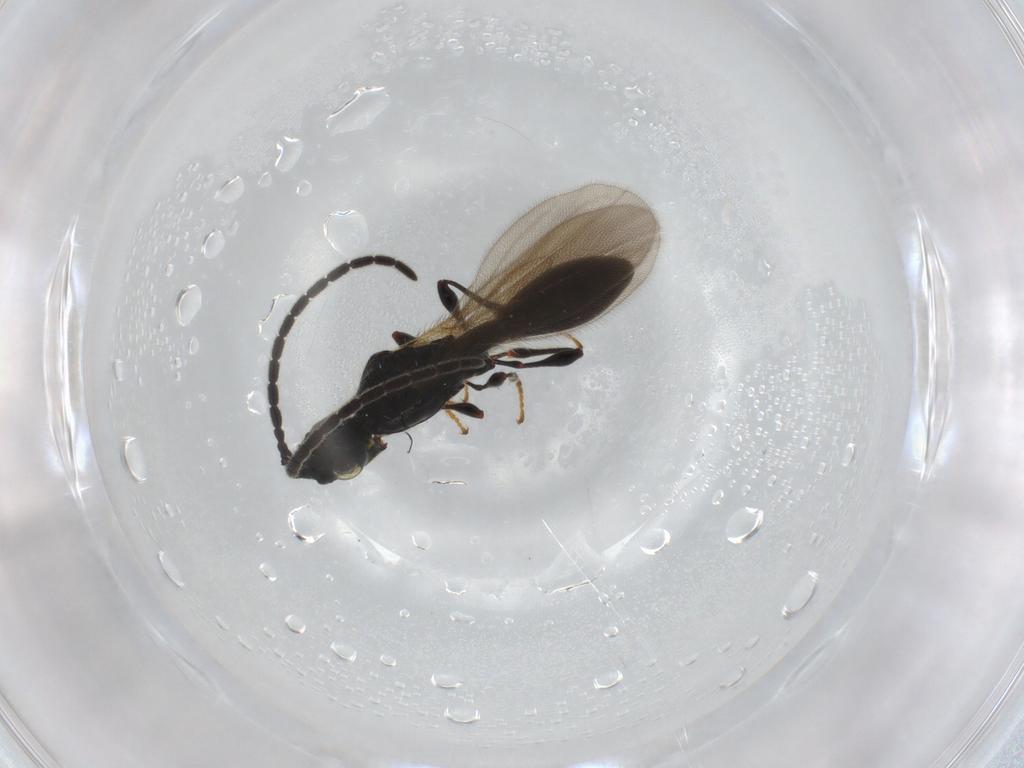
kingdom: Animalia
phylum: Arthropoda
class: Insecta
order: Hymenoptera
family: Diapriidae
